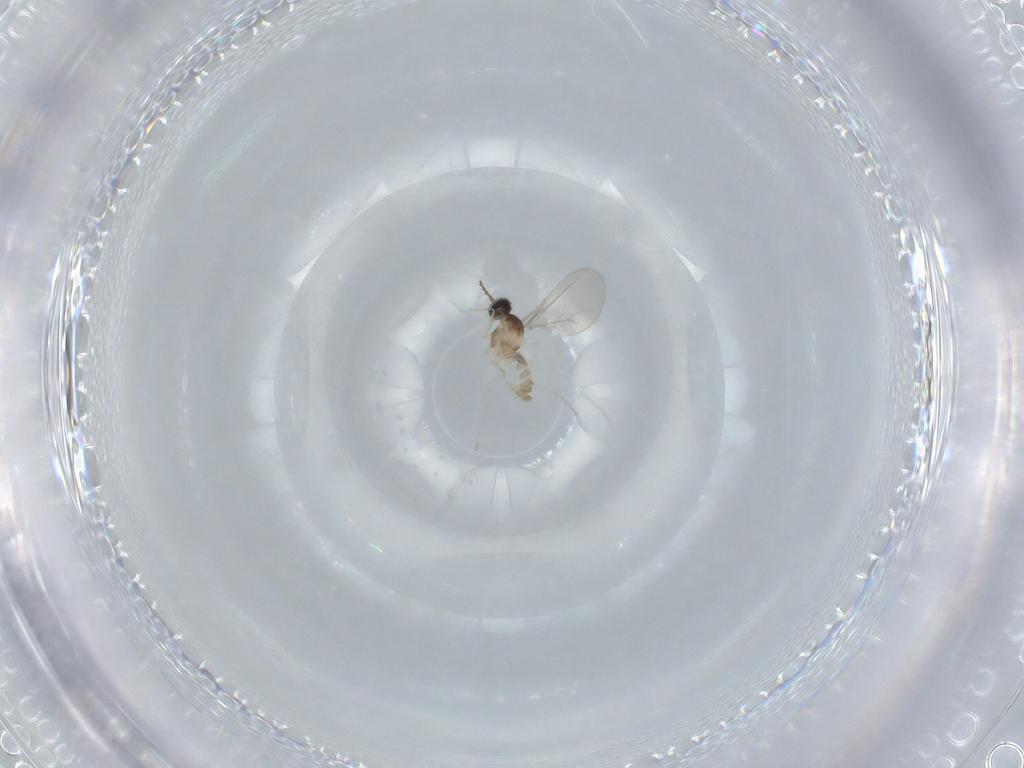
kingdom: Animalia
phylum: Arthropoda
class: Insecta
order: Diptera
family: Cecidomyiidae
